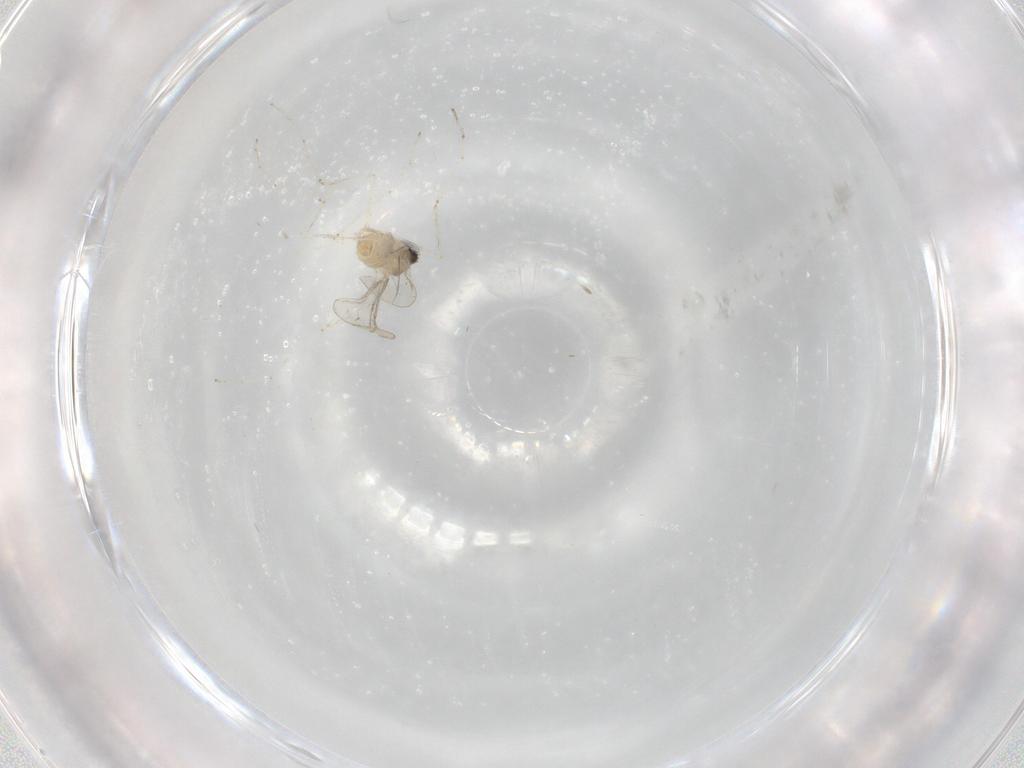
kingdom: Animalia
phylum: Arthropoda
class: Insecta
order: Diptera
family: Cecidomyiidae
